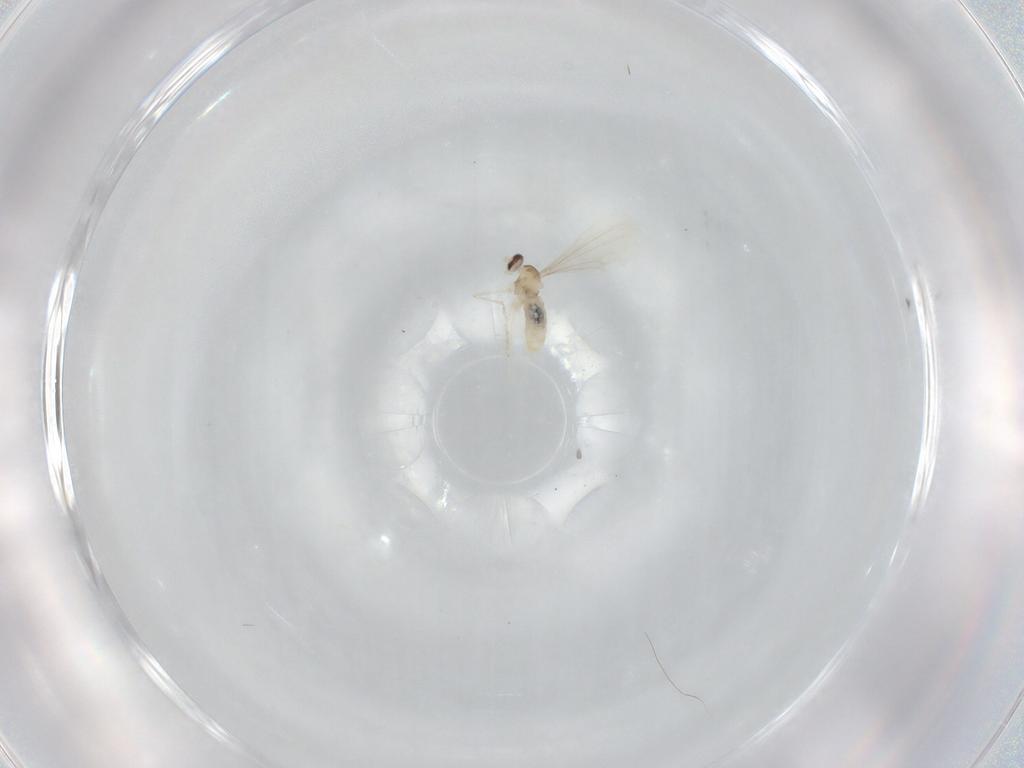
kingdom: Animalia
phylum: Arthropoda
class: Insecta
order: Diptera
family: Cecidomyiidae
